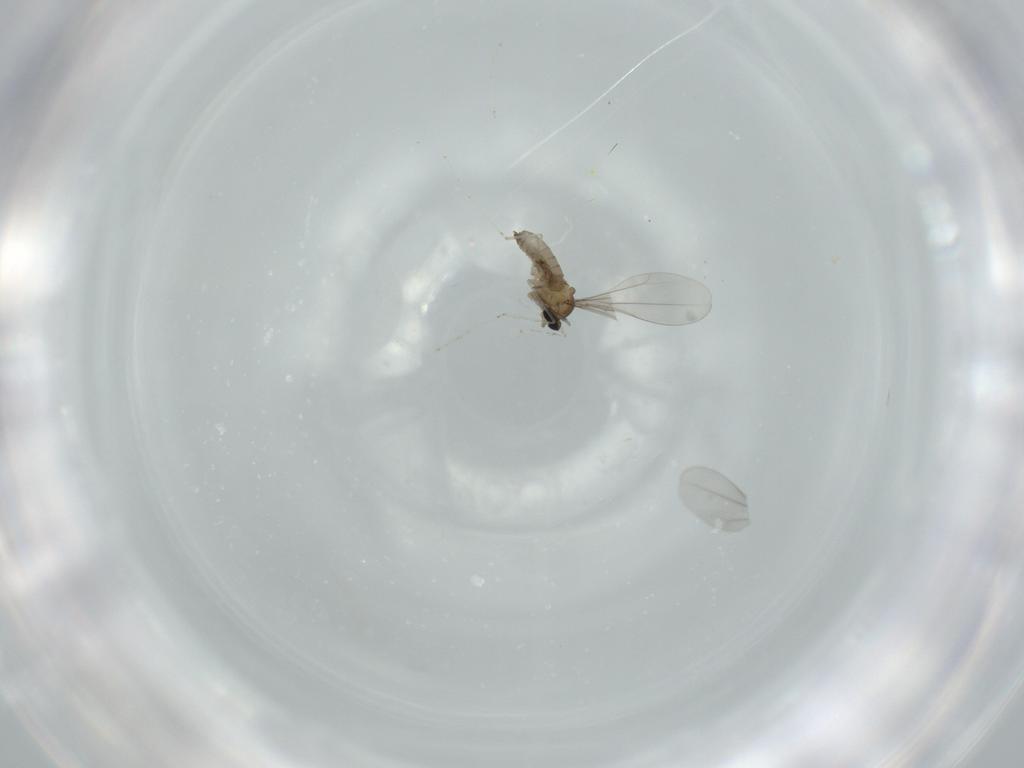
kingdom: Animalia
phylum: Arthropoda
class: Insecta
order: Diptera
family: Cecidomyiidae
